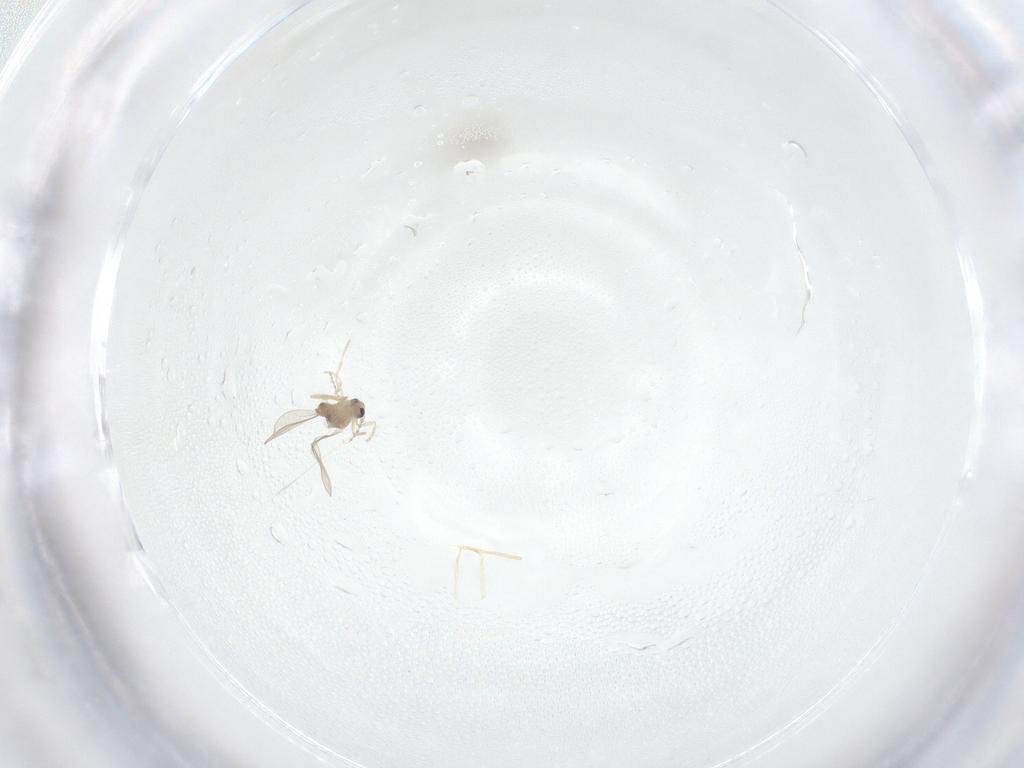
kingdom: Animalia
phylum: Arthropoda
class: Insecta
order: Diptera
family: Cecidomyiidae
